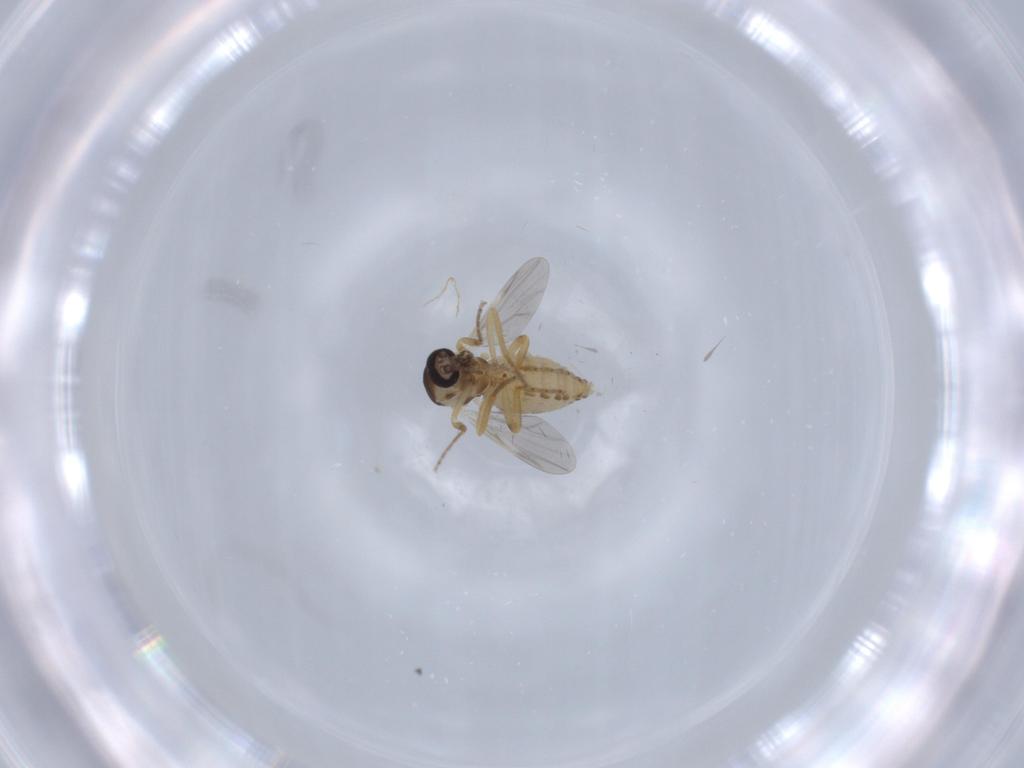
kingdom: Animalia
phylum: Arthropoda
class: Insecta
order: Diptera
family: Ceratopogonidae
